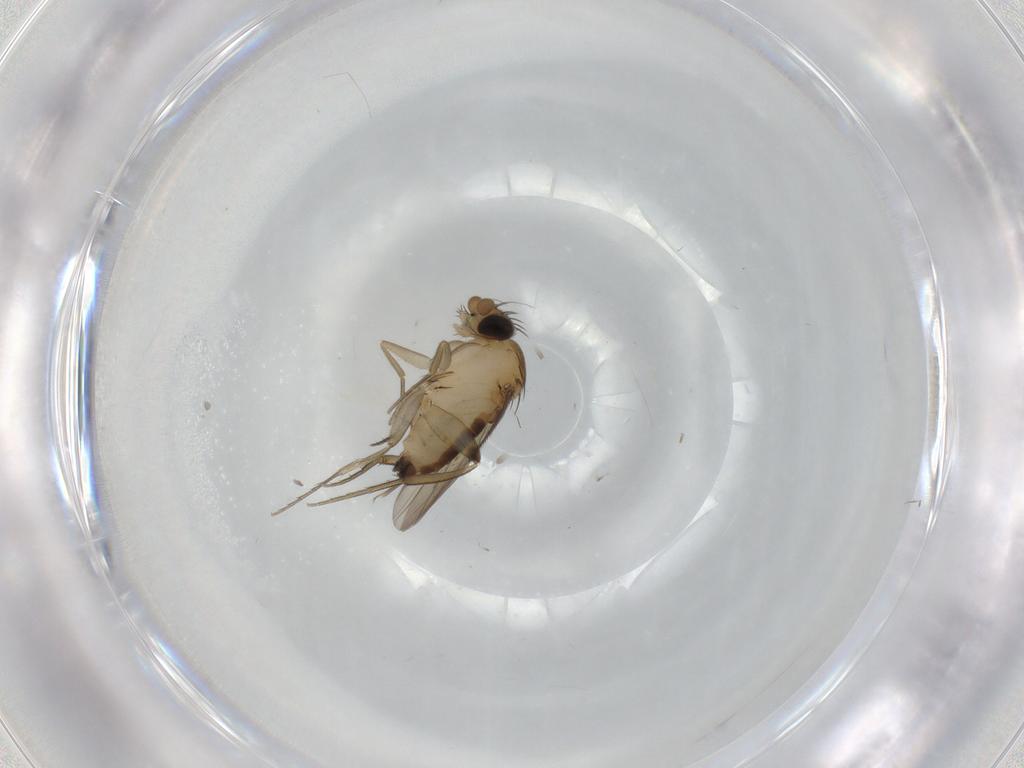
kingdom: Animalia
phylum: Arthropoda
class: Insecta
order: Diptera
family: Phoridae
